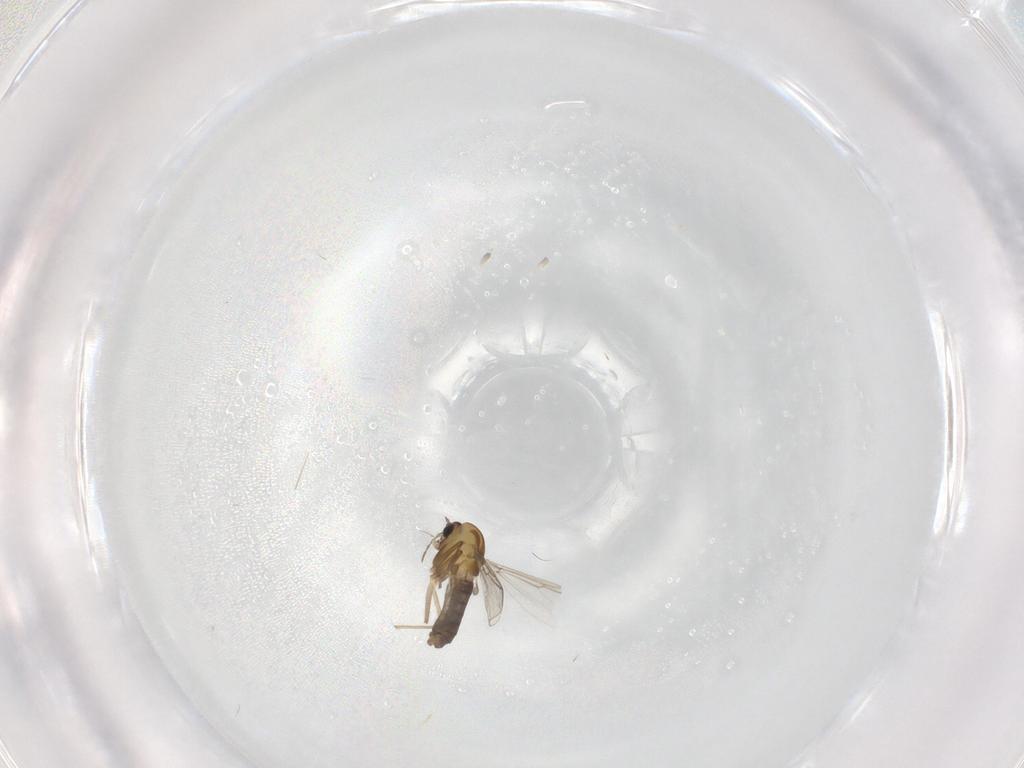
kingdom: Animalia
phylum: Arthropoda
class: Insecta
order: Diptera
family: Chironomidae
